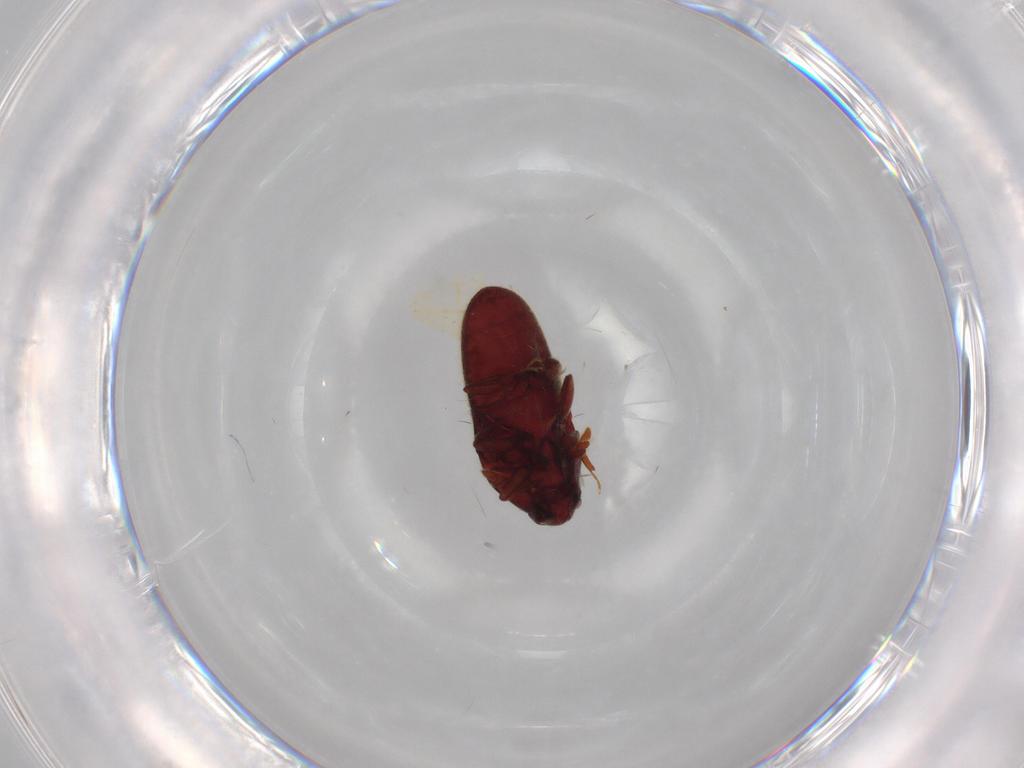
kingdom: Animalia
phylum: Arthropoda
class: Insecta
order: Coleoptera
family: Throscidae
